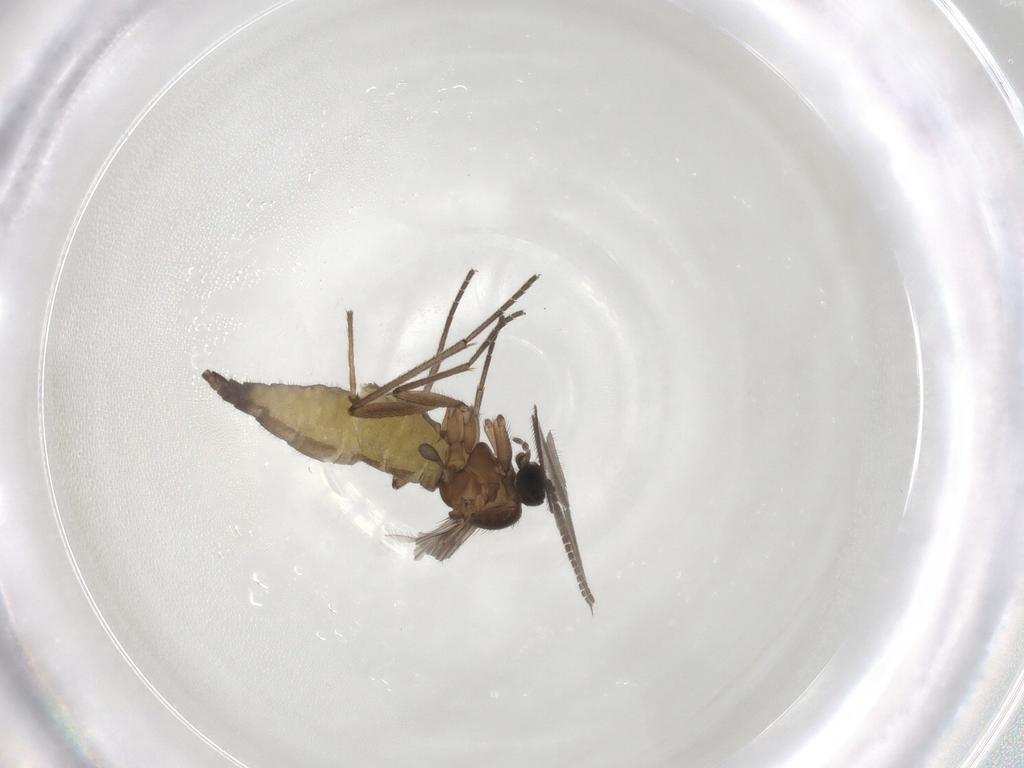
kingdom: Animalia
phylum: Arthropoda
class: Insecta
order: Diptera
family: Sciaridae
